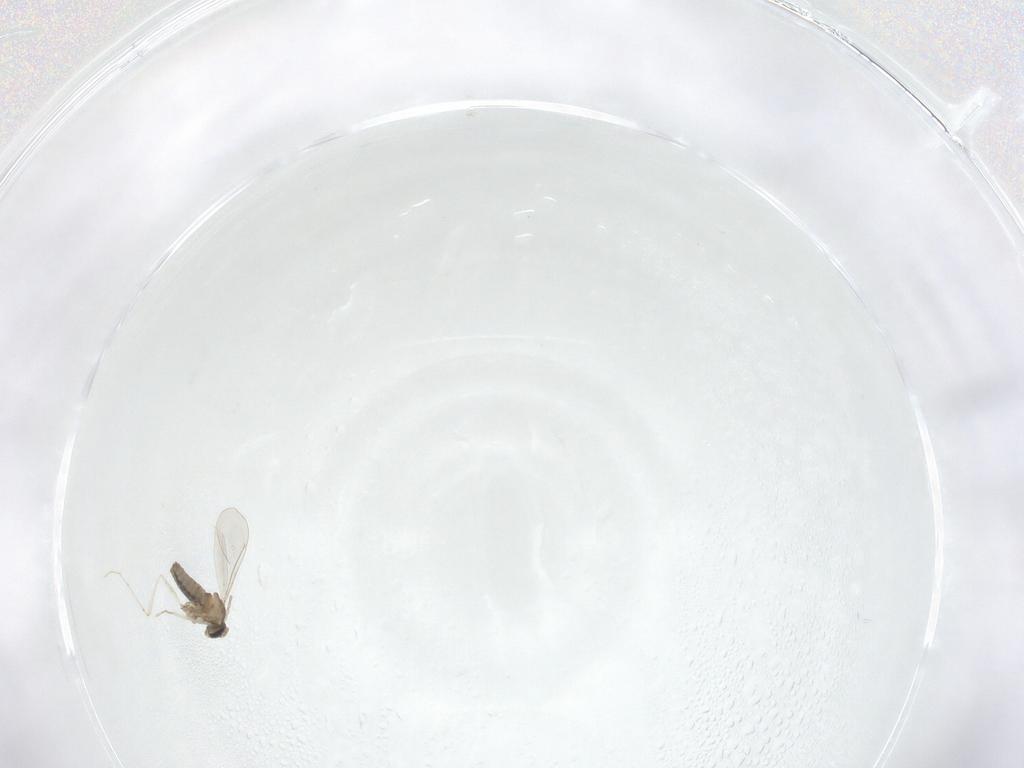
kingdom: Animalia
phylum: Arthropoda
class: Insecta
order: Diptera
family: Cecidomyiidae
